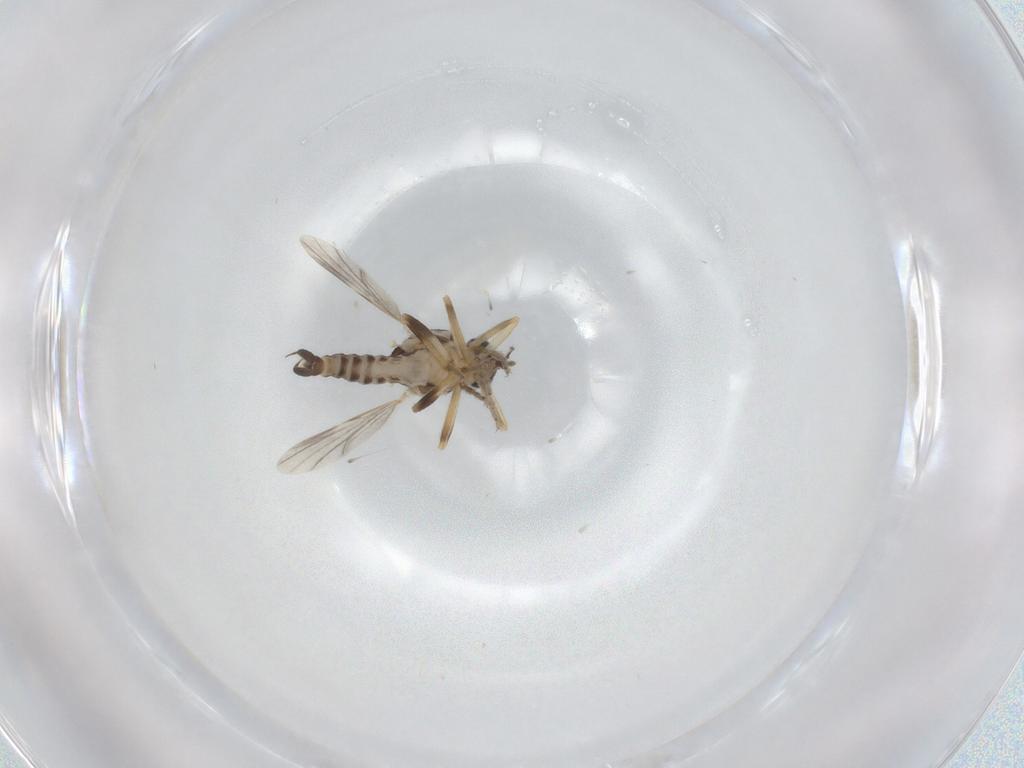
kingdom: Animalia
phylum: Arthropoda
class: Insecta
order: Diptera
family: Ceratopogonidae
